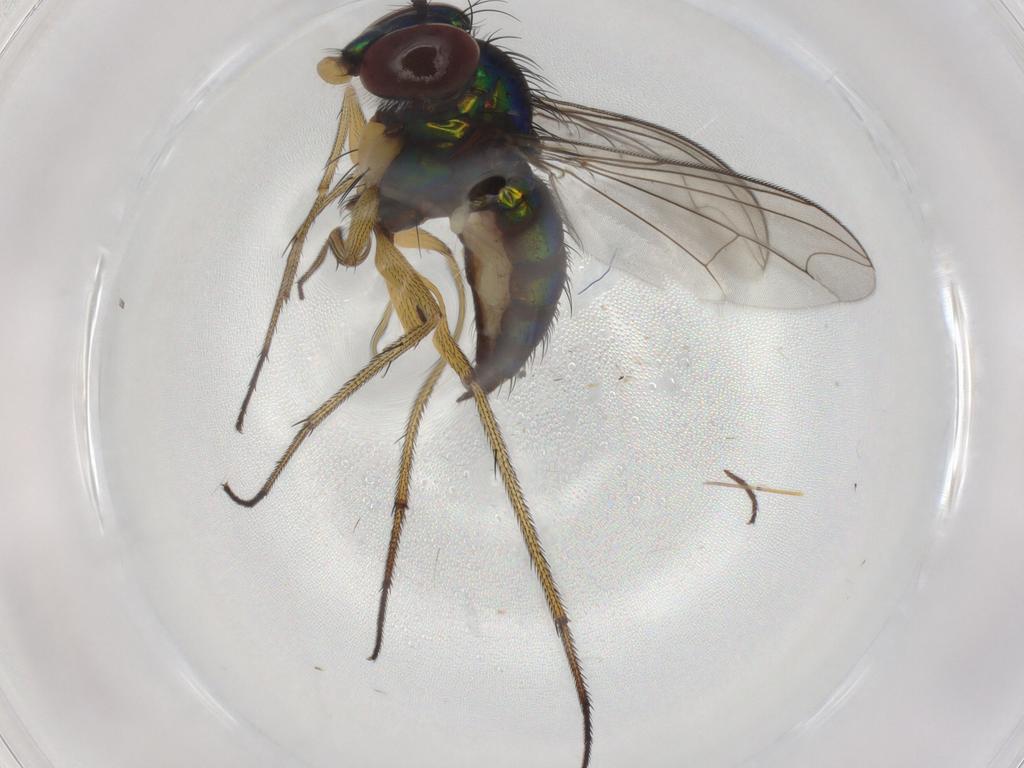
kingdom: Animalia
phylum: Arthropoda
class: Insecta
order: Diptera
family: Dolichopodidae
